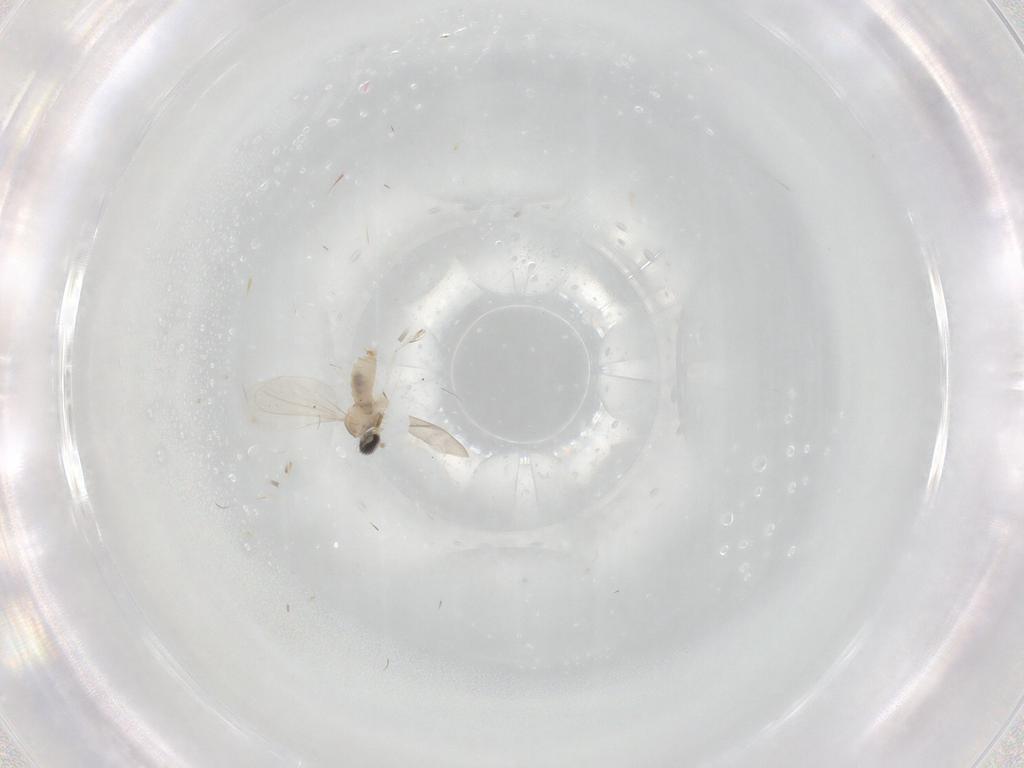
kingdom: Animalia
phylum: Arthropoda
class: Insecta
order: Diptera
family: Cecidomyiidae
